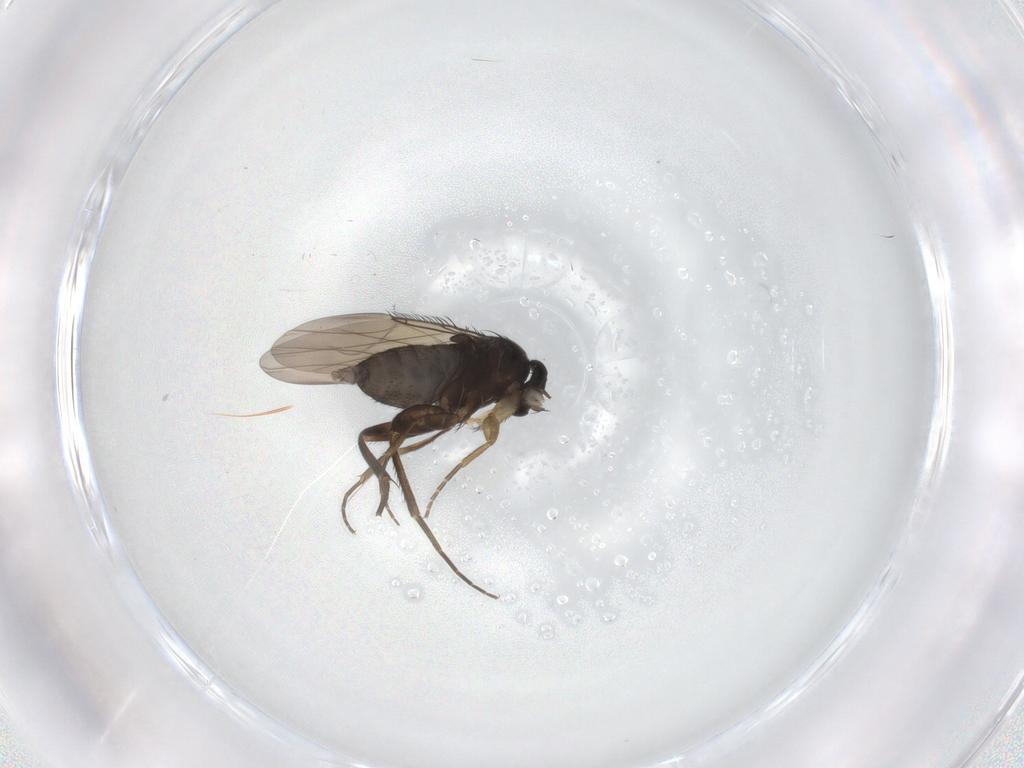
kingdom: Animalia
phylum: Arthropoda
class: Insecta
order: Diptera
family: Phoridae
